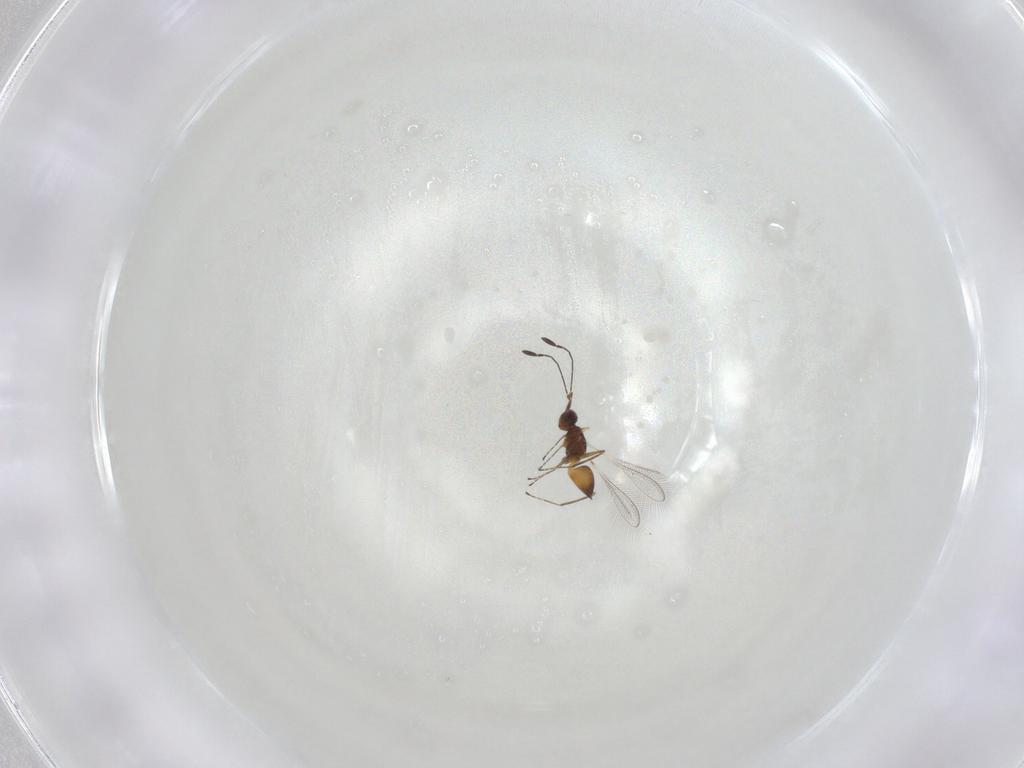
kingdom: Animalia
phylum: Arthropoda
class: Insecta
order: Hymenoptera
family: Mymaridae
